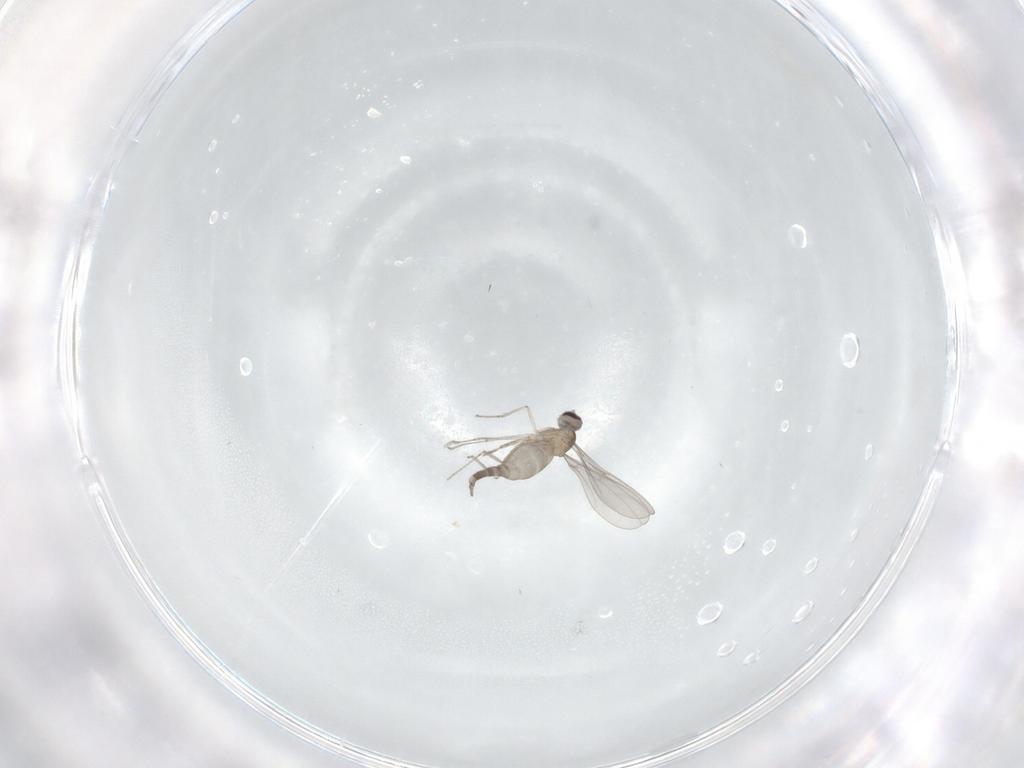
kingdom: Animalia
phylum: Arthropoda
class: Insecta
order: Diptera
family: Cecidomyiidae
